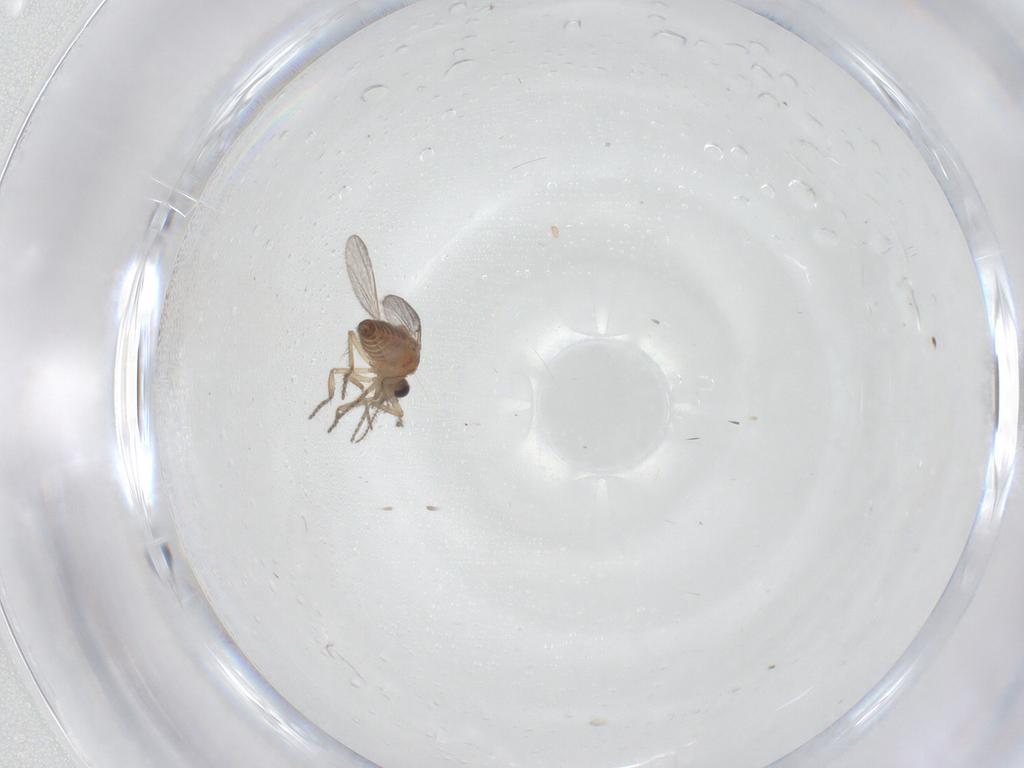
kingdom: Animalia
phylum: Arthropoda
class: Insecta
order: Diptera
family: Ceratopogonidae
